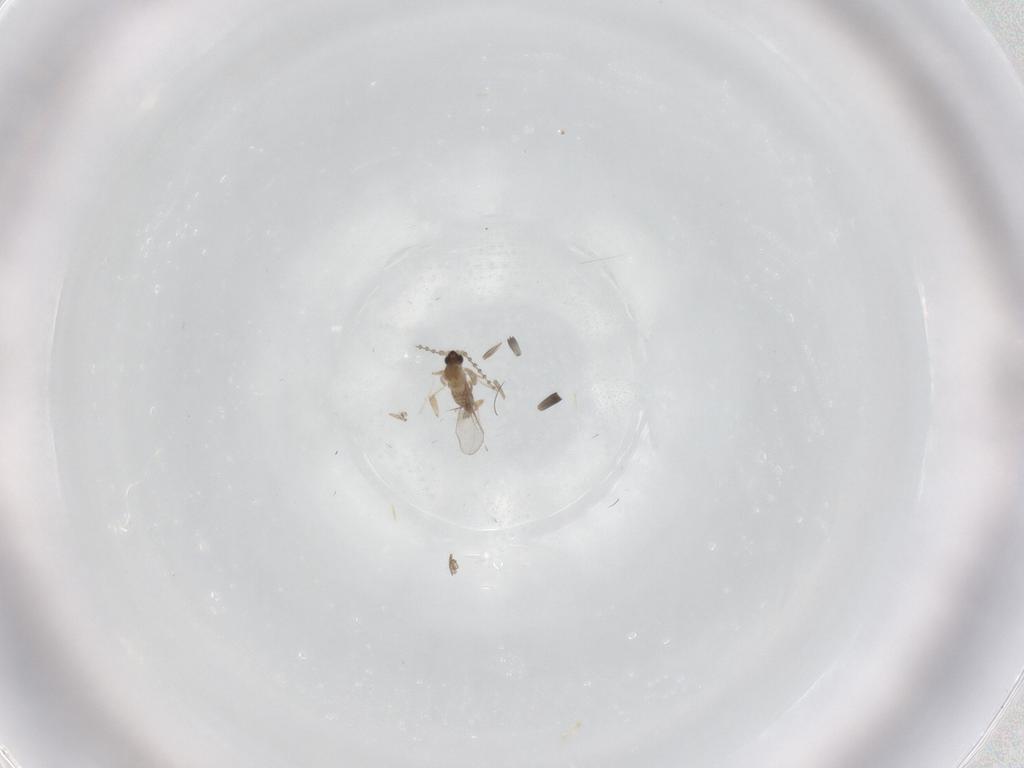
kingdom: Animalia
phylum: Arthropoda
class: Insecta
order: Diptera
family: Cecidomyiidae
